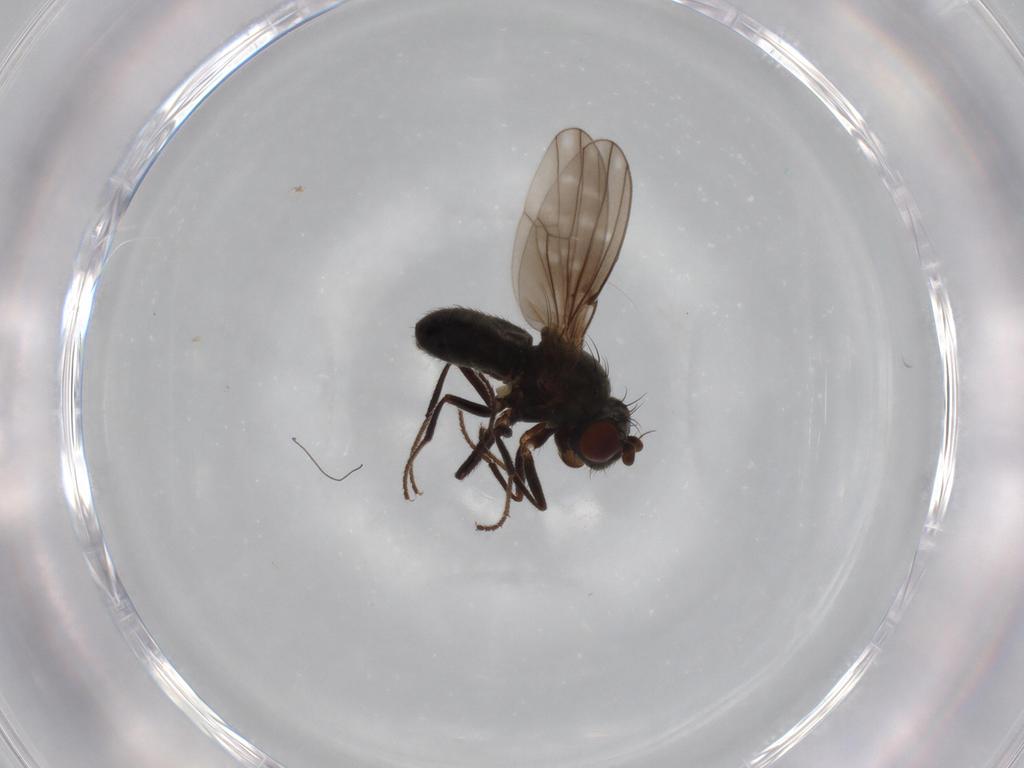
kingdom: Animalia
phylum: Arthropoda
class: Insecta
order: Diptera
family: Ephydridae
